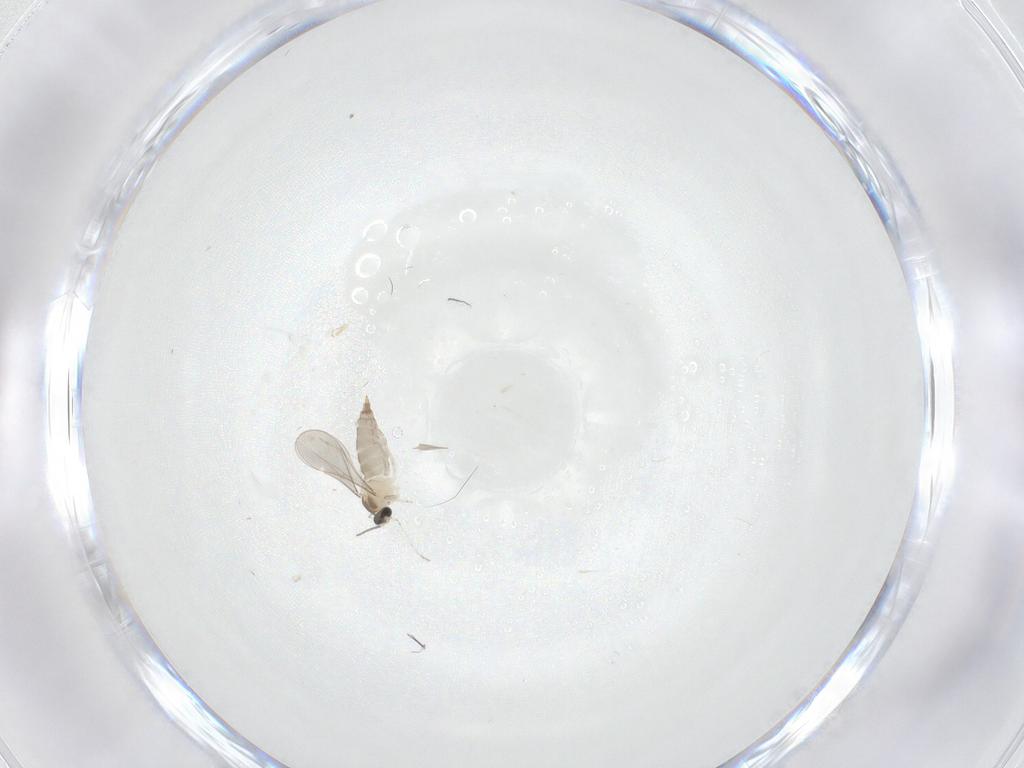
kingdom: Animalia
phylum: Arthropoda
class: Insecta
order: Diptera
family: Cecidomyiidae
